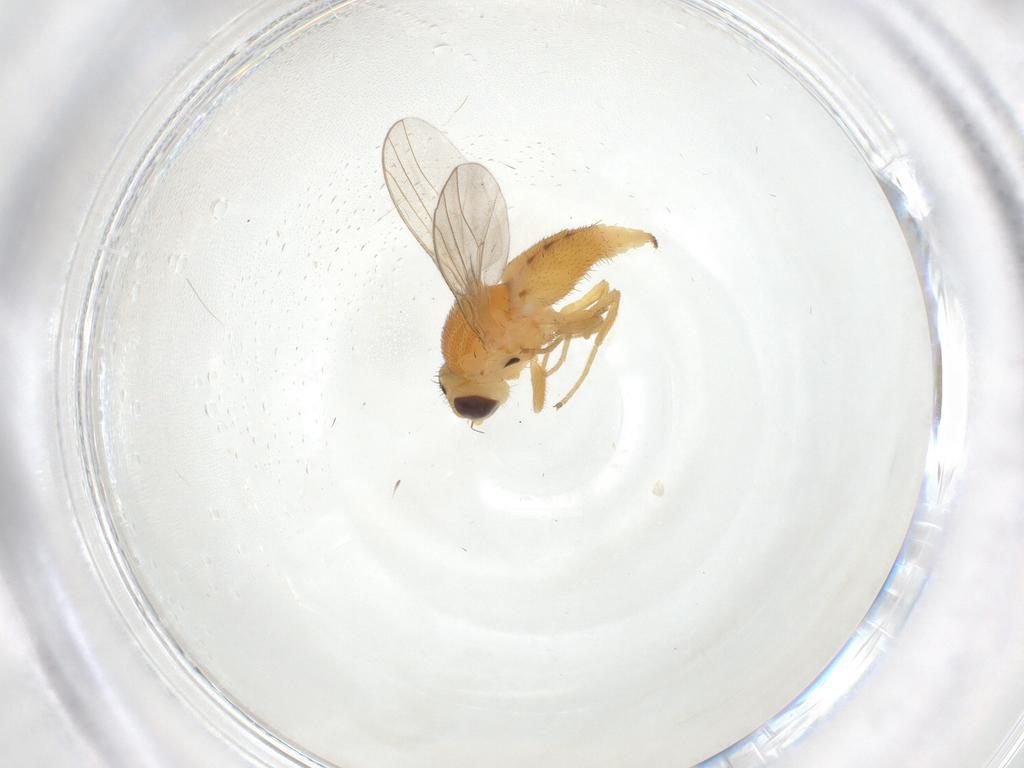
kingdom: Animalia
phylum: Arthropoda
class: Insecta
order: Diptera
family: Chloropidae
